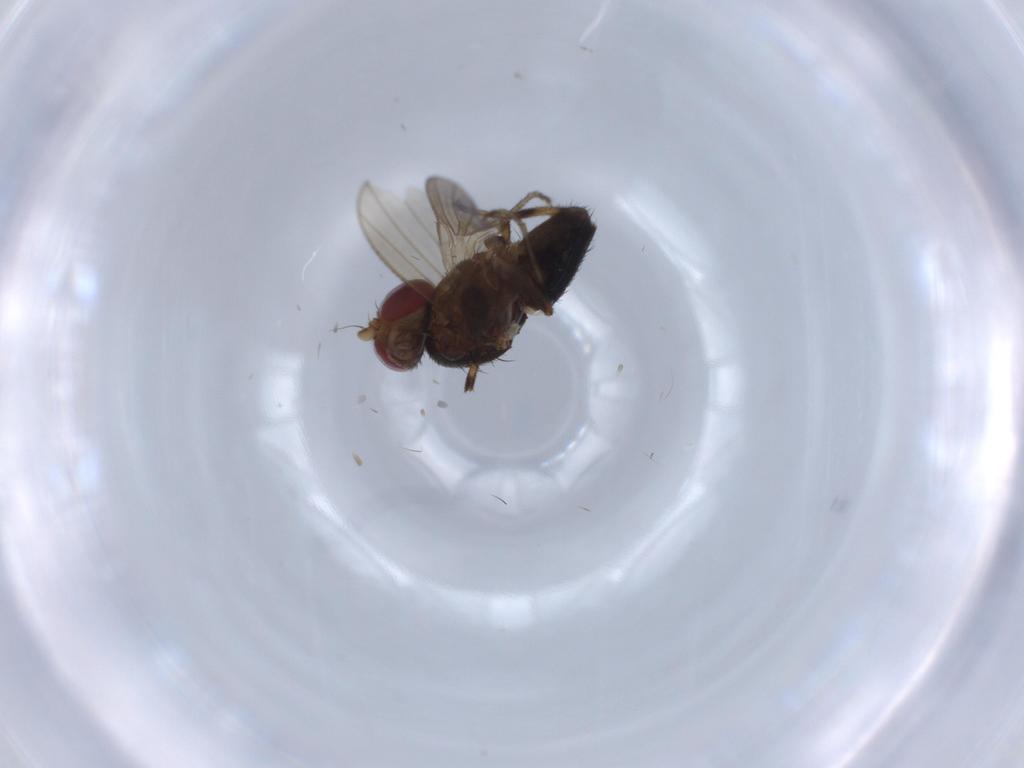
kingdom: Animalia
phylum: Arthropoda
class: Insecta
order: Diptera
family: Heleomyzidae
